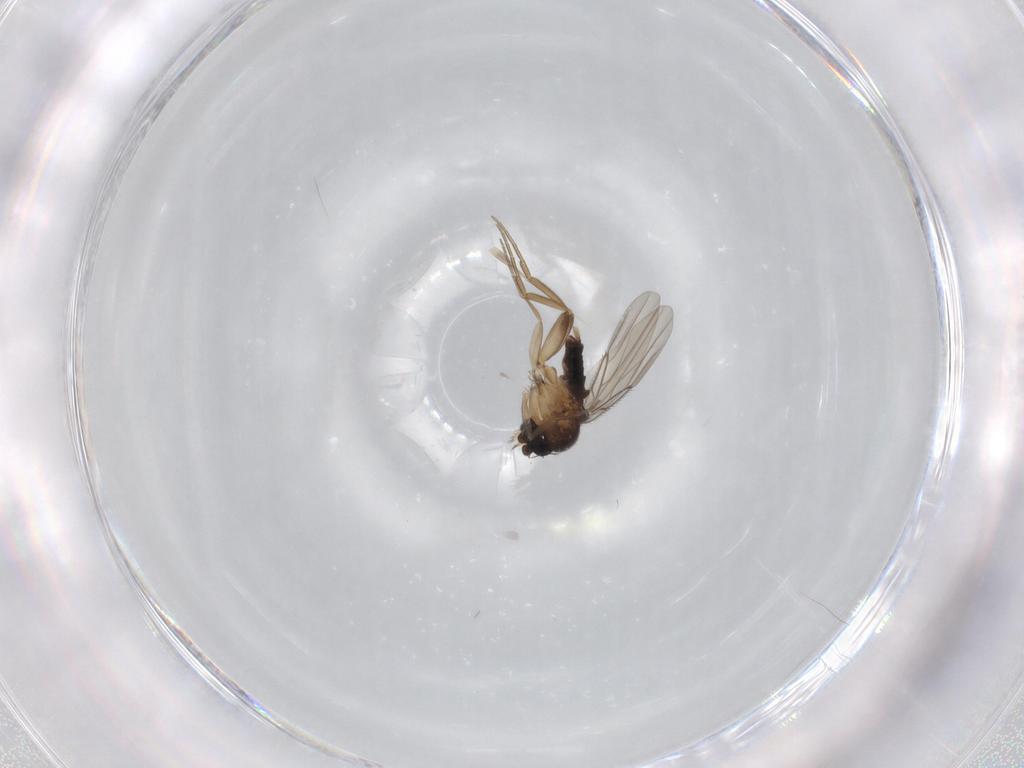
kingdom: Animalia
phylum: Arthropoda
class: Insecta
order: Diptera
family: Phoridae
